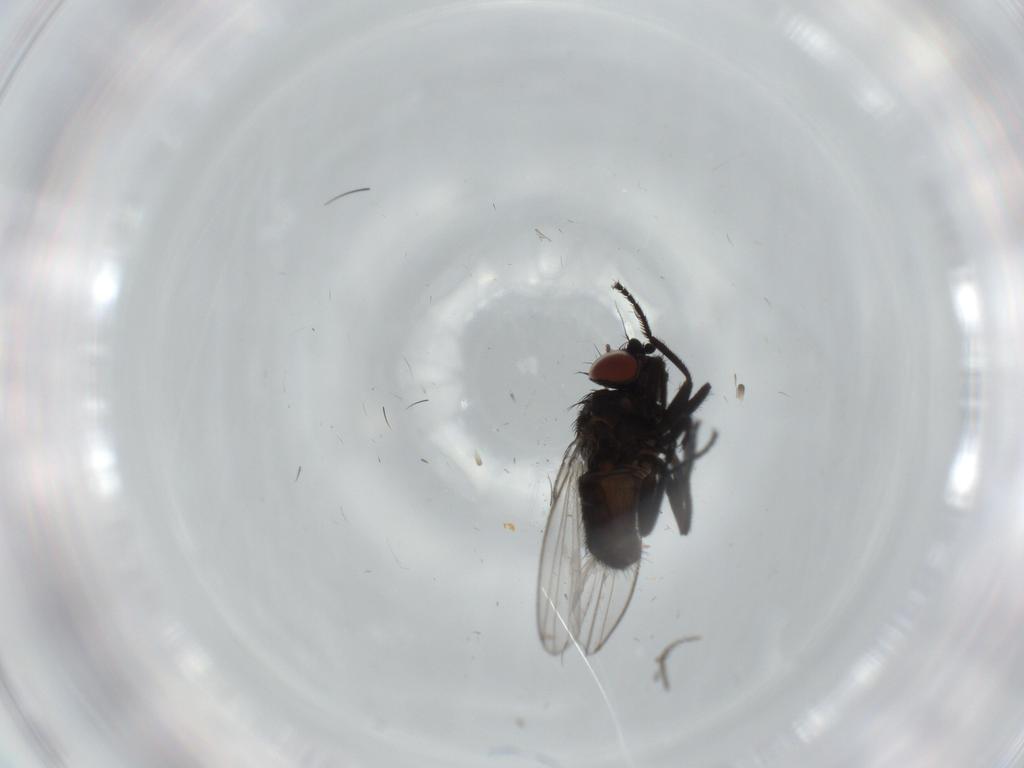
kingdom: Animalia
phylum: Arthropoda
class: Insecta
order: Diptera
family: Milichiidae
